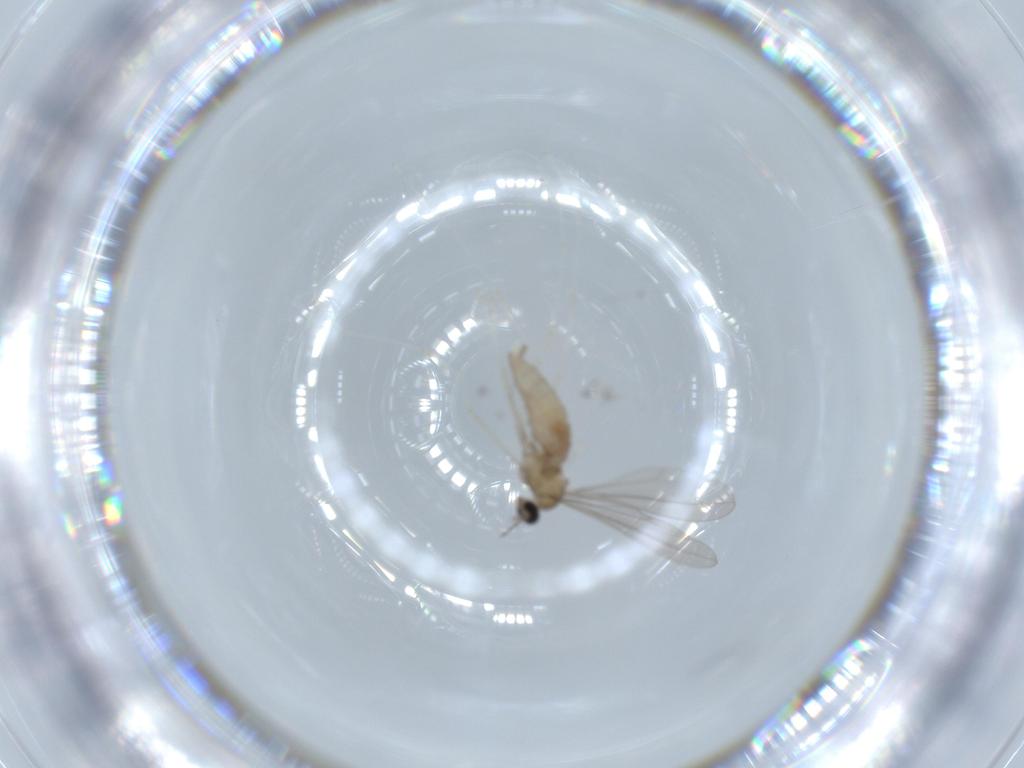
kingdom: Animalia
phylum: Arthropoda
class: Insecta
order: Diptera
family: Cecidomyiidae
